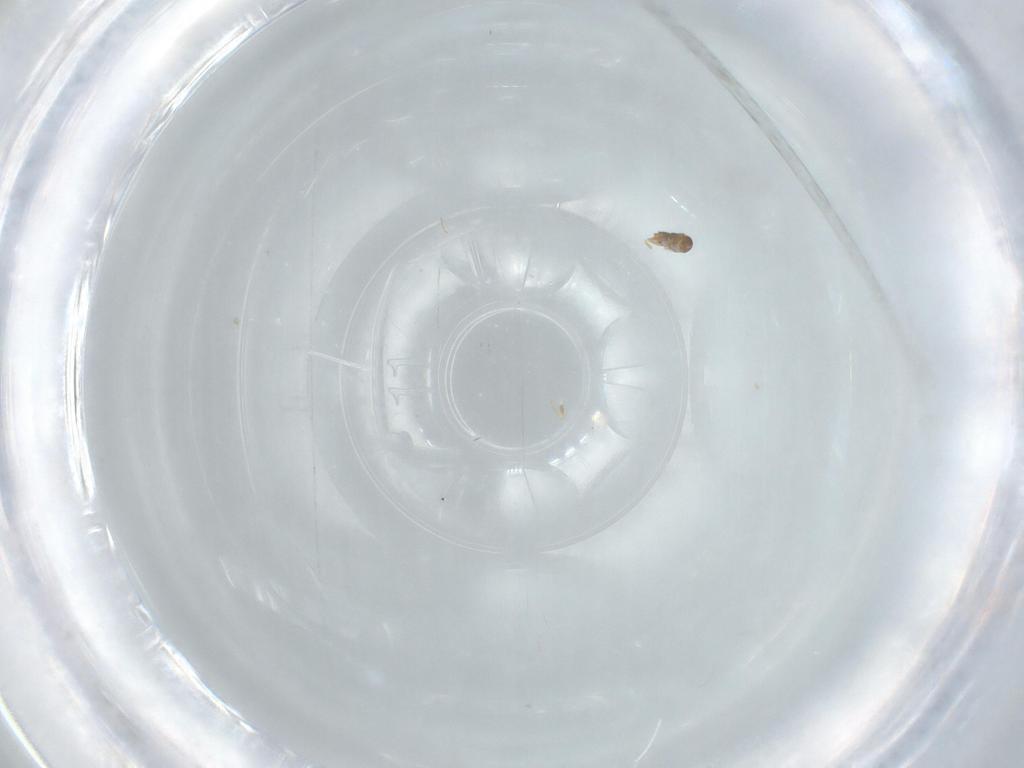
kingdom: Animalia
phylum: Arthropoda
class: Insecta
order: Hymenoptera
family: Aphelinidae
